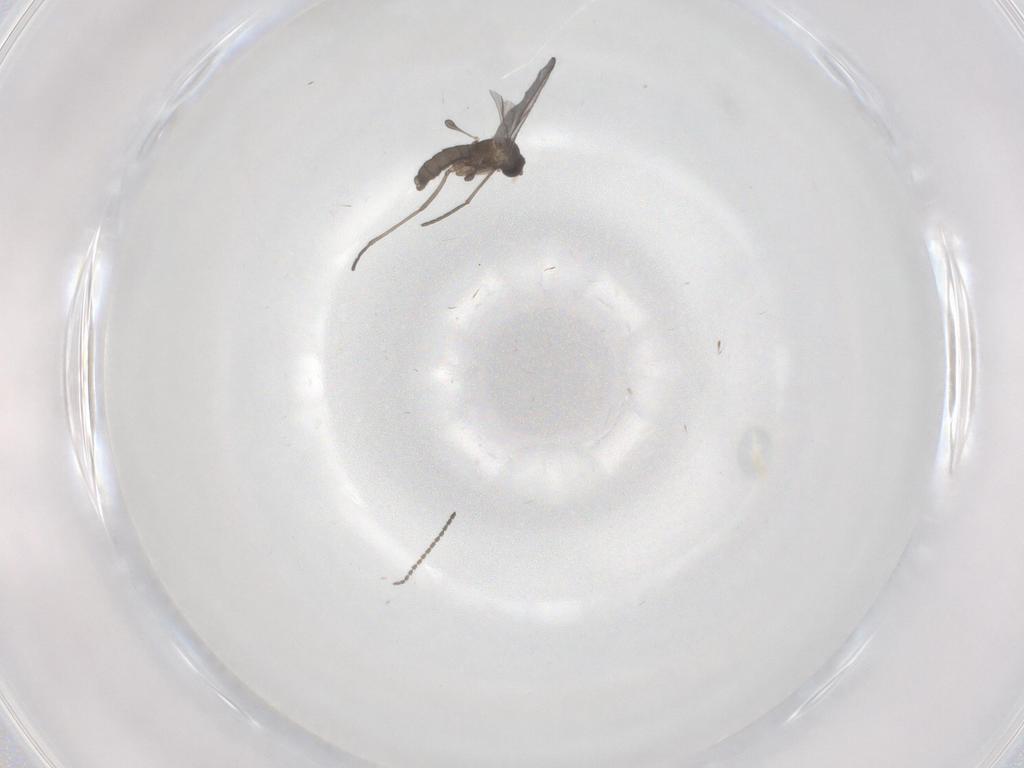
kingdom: Animalia
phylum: Arthropoda
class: Insecta
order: Diptera
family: Sciaridae
